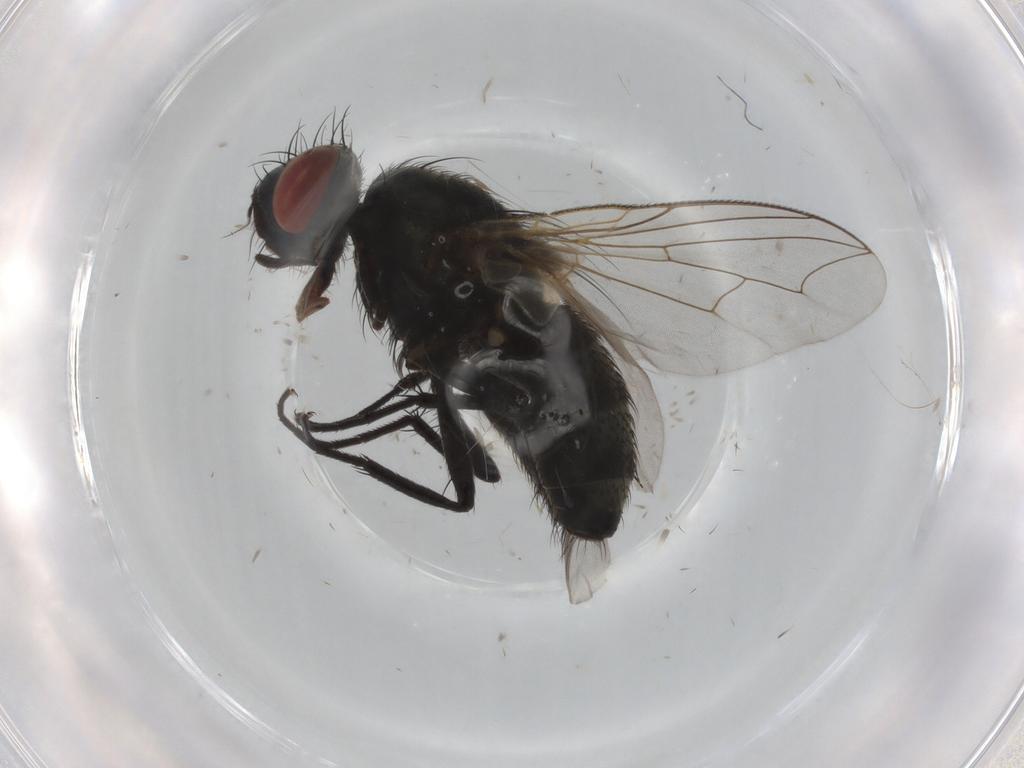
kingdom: Animalia
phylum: Arthropoda
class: Insecta
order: Diptera
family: Sarcophagidae
